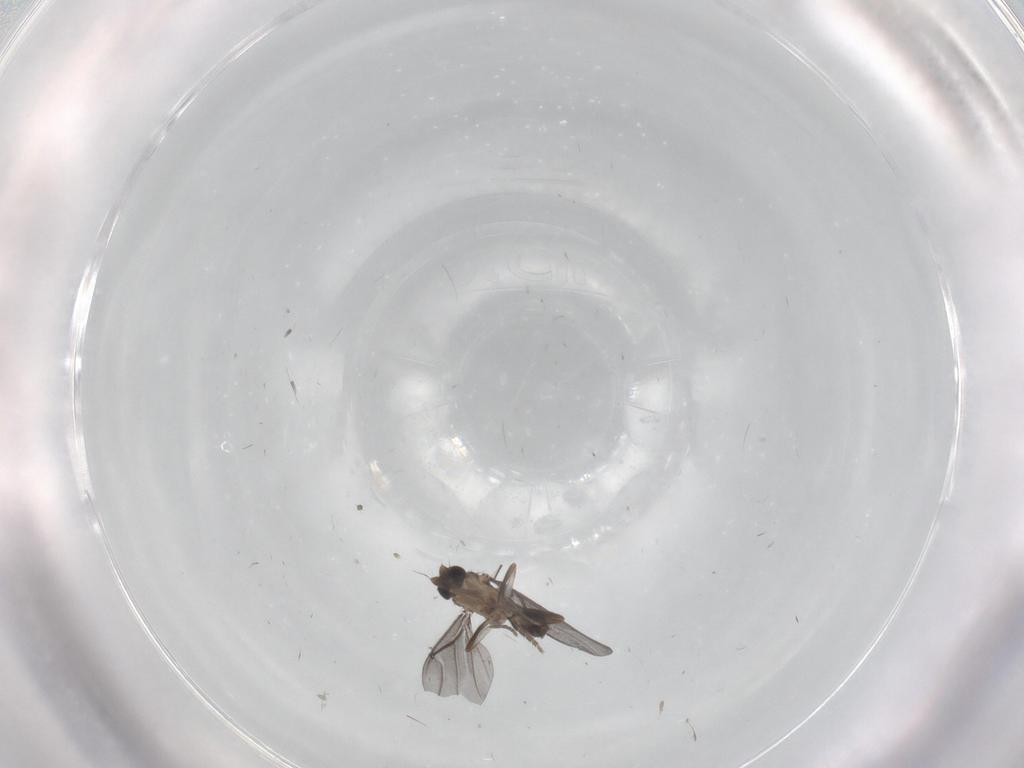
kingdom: Animalia
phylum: Arthropoda
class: Insecta
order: Diptera
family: Phoridae
